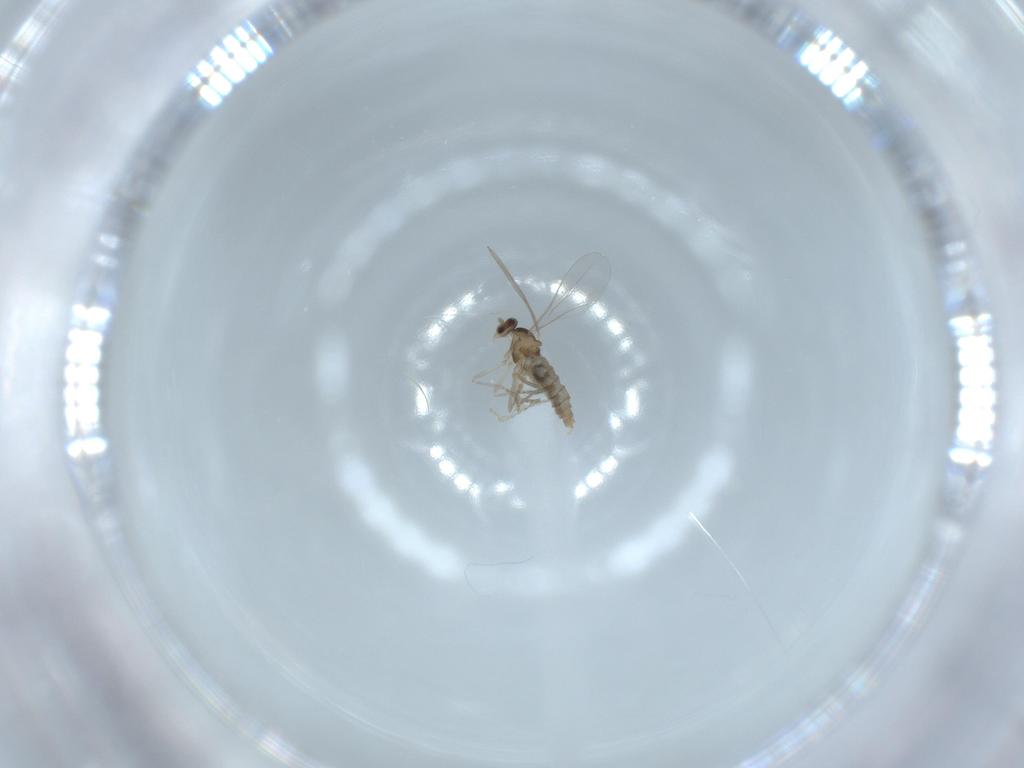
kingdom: Animalia
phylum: Arthropoda
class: Insecta
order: Diptera
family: Cecidomyiidae
